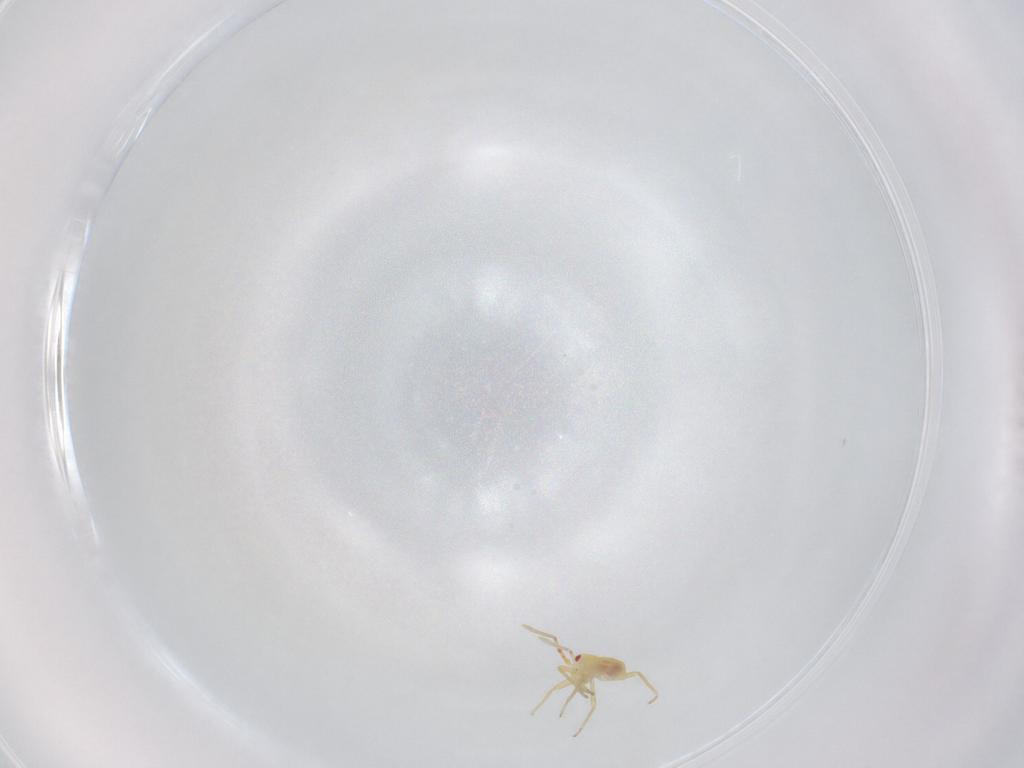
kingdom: Animalia
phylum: Arthropoda
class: Insecta
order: Hemiptera
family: Miridae
